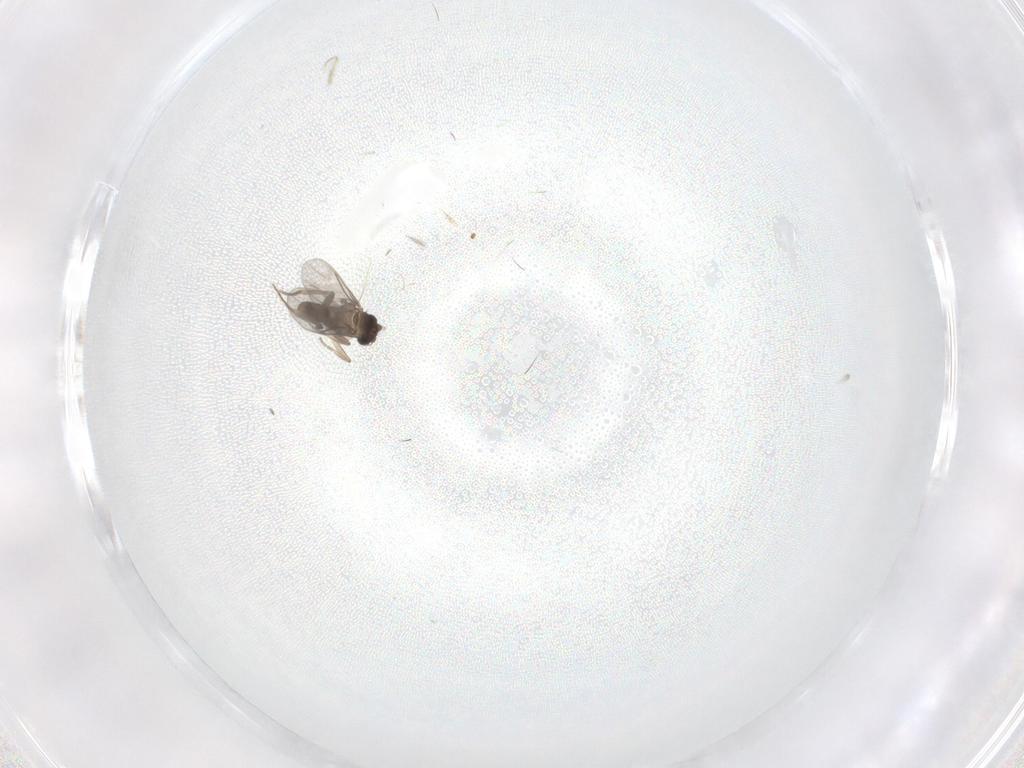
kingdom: Animalia
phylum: Arthropoda
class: Insecta
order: Diptera
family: Cecidomyiidae
